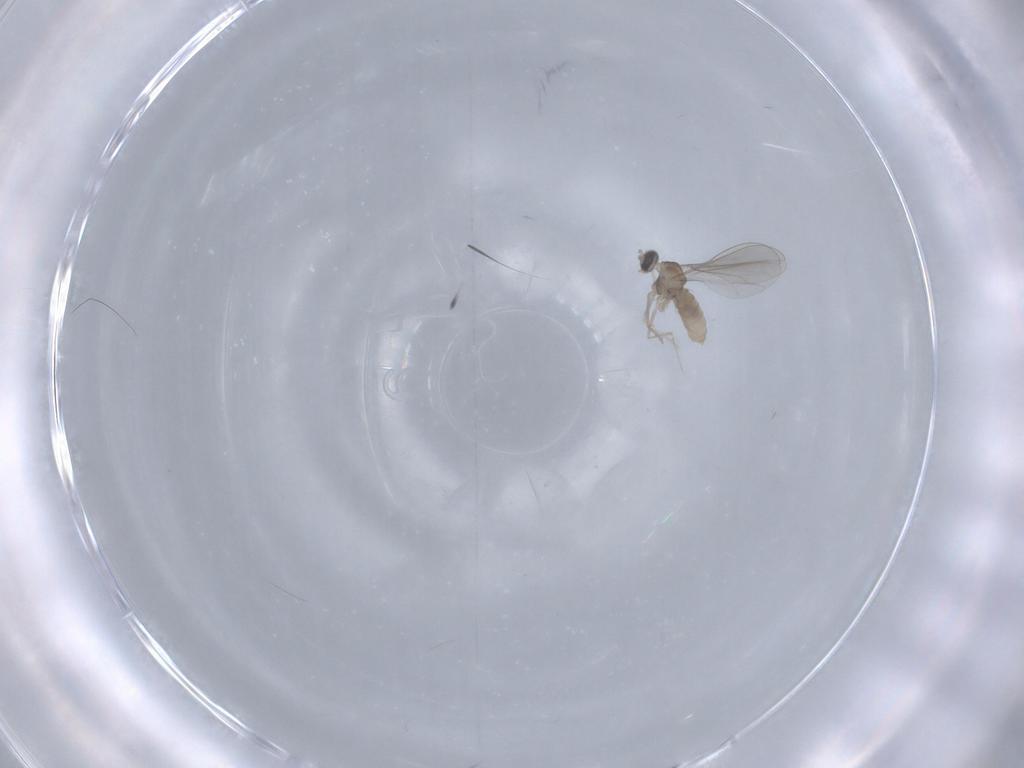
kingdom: Animalia
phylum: Arthropoda
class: Insecta
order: Diptera
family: Cecidomyiidae
